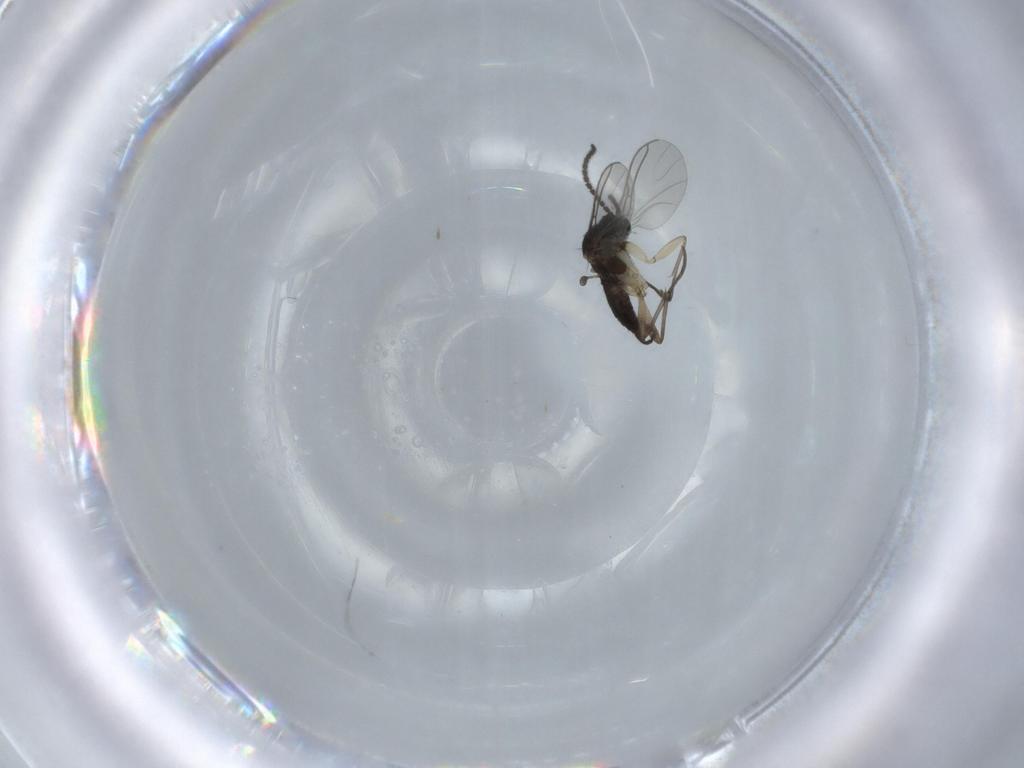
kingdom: Animalia
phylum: Arthropoda
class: Insecta
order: Diptera
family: Sciaridae
